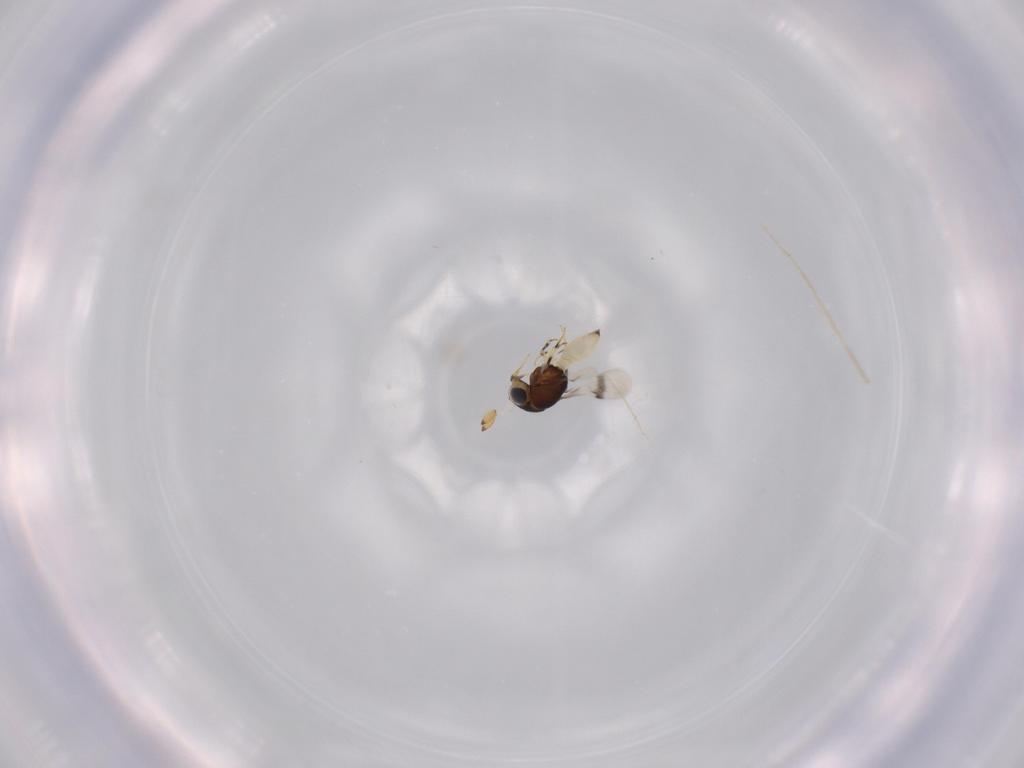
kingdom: Animalia
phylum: Arthropoda
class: Insecta
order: Hymenoptera
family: Scelionidae
